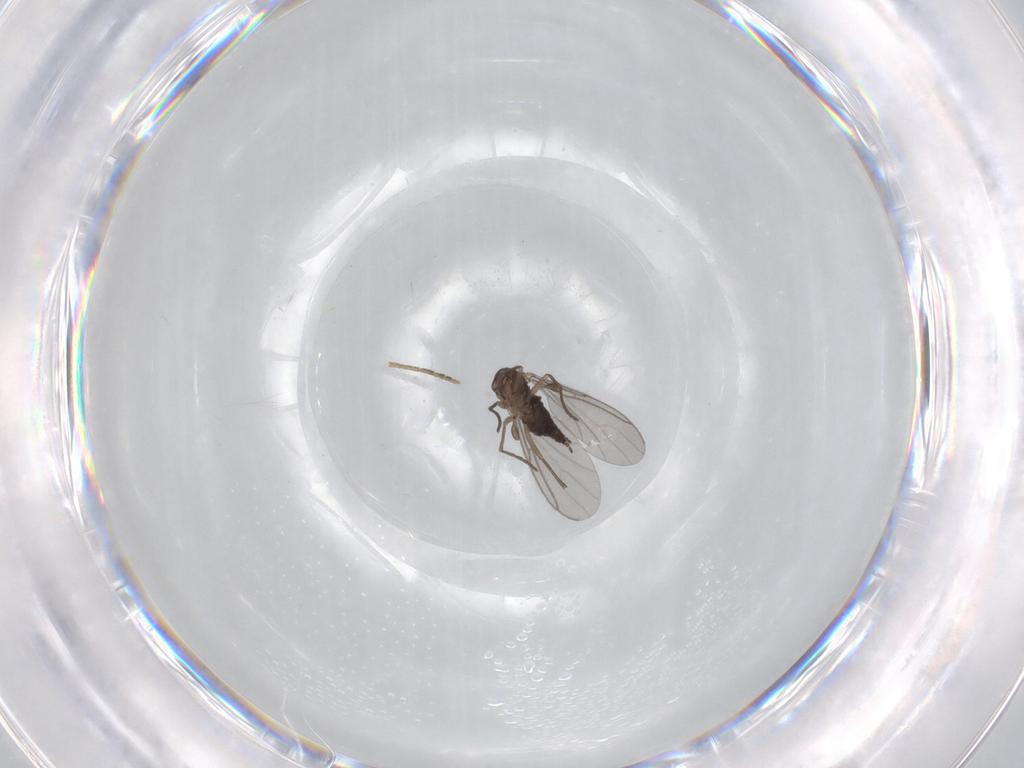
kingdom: Animalia
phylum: Arthropoda
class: Insecta
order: Diptera
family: Sciaridae
